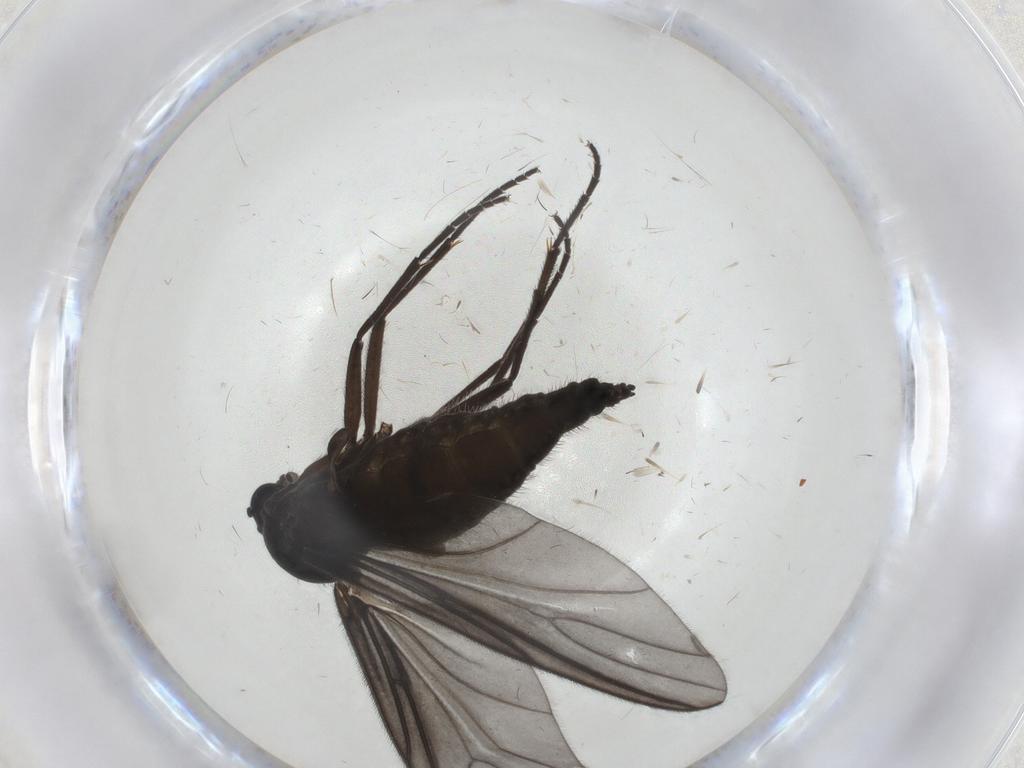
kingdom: Animalia
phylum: Arthropoda
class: Insecta
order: Diptera
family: Sciaridae
